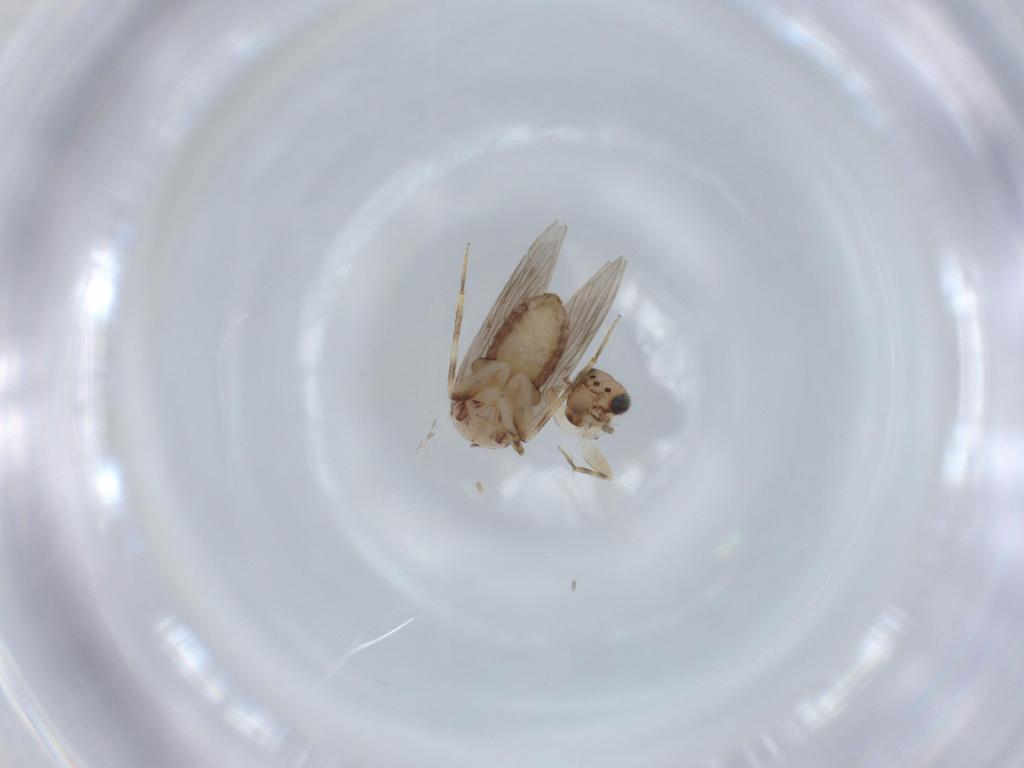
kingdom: Animalia
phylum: Arthropoda
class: Insecta
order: Psocodea
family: Lepidopsocidae
